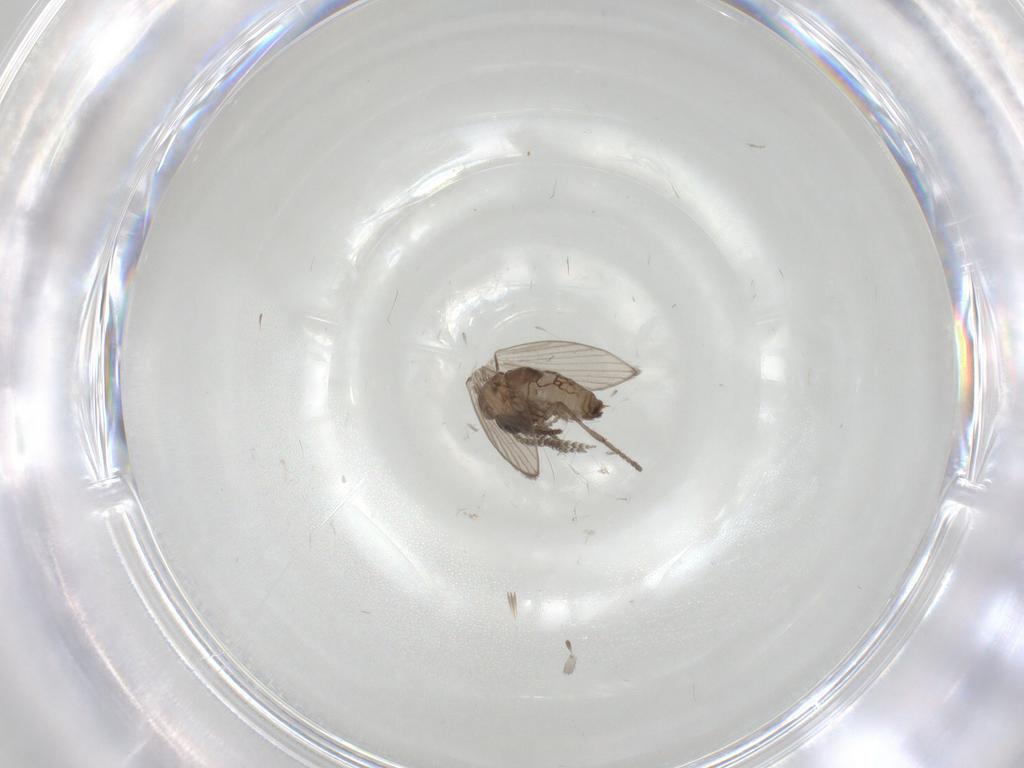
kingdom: Animalia
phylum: Arthropoda
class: Insecta
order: Diptera
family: Psychodidae
